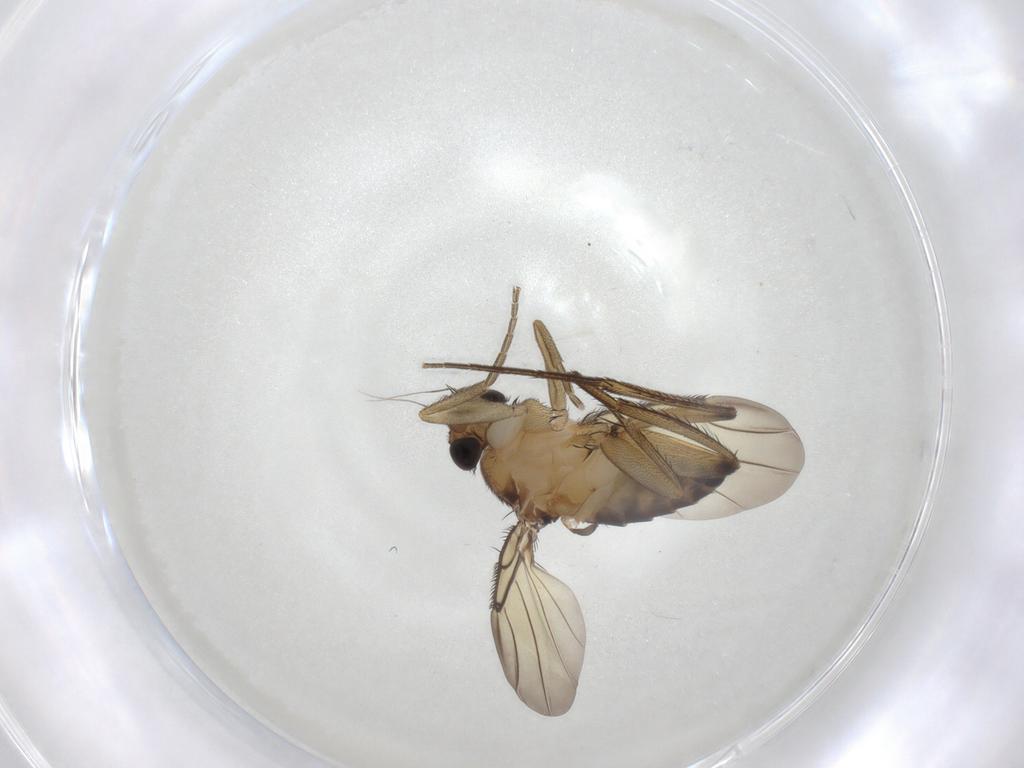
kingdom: Animalia
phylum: Arthropoda
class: Insecta
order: Diptera
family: Phoridae
